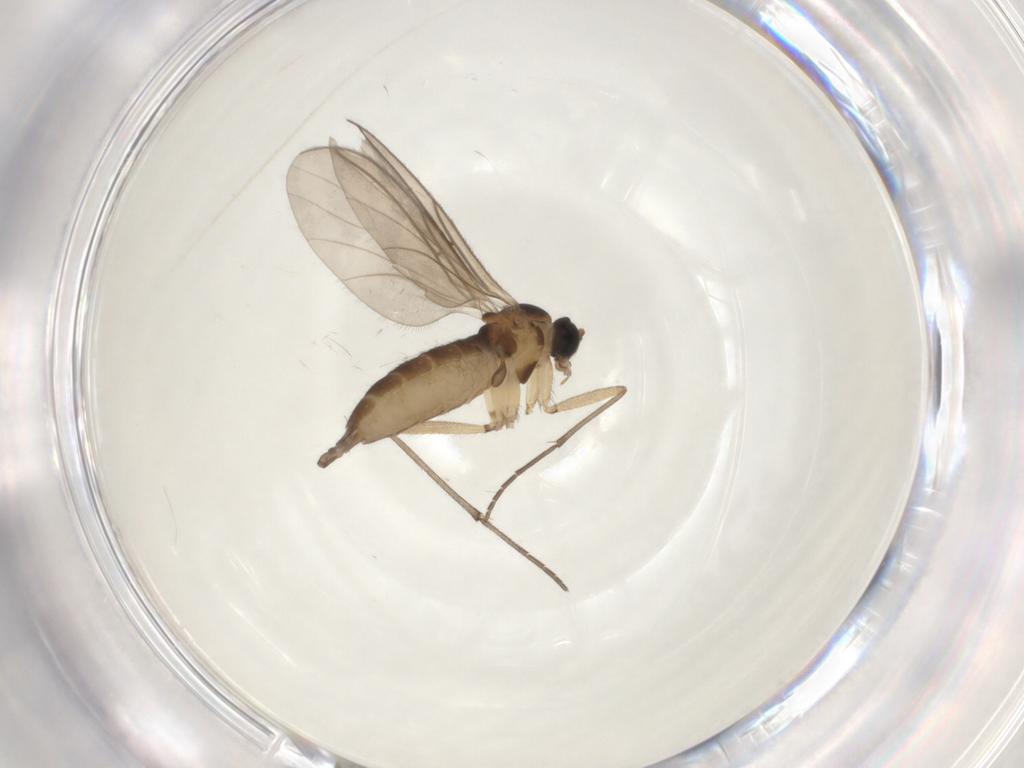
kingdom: Animalia
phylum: Arthropoda
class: Insecta
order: Diptera
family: Sciaridae
